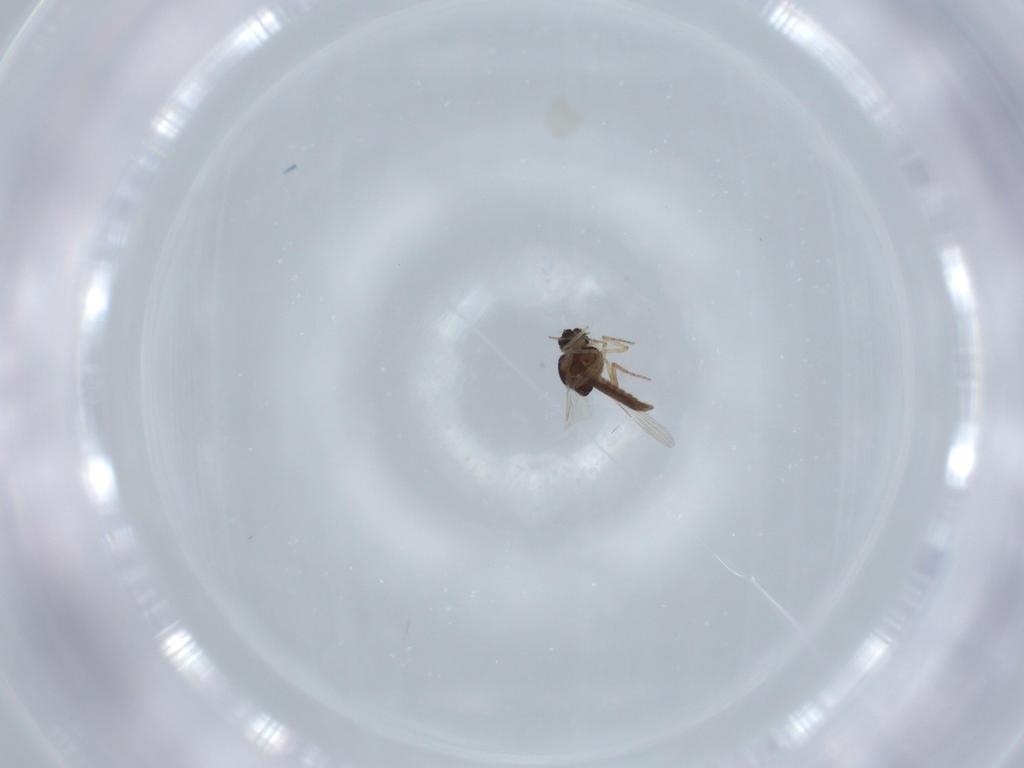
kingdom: Animalia
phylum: Arthropoda
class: Insecta
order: Diptera
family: Ceratopogonidae
